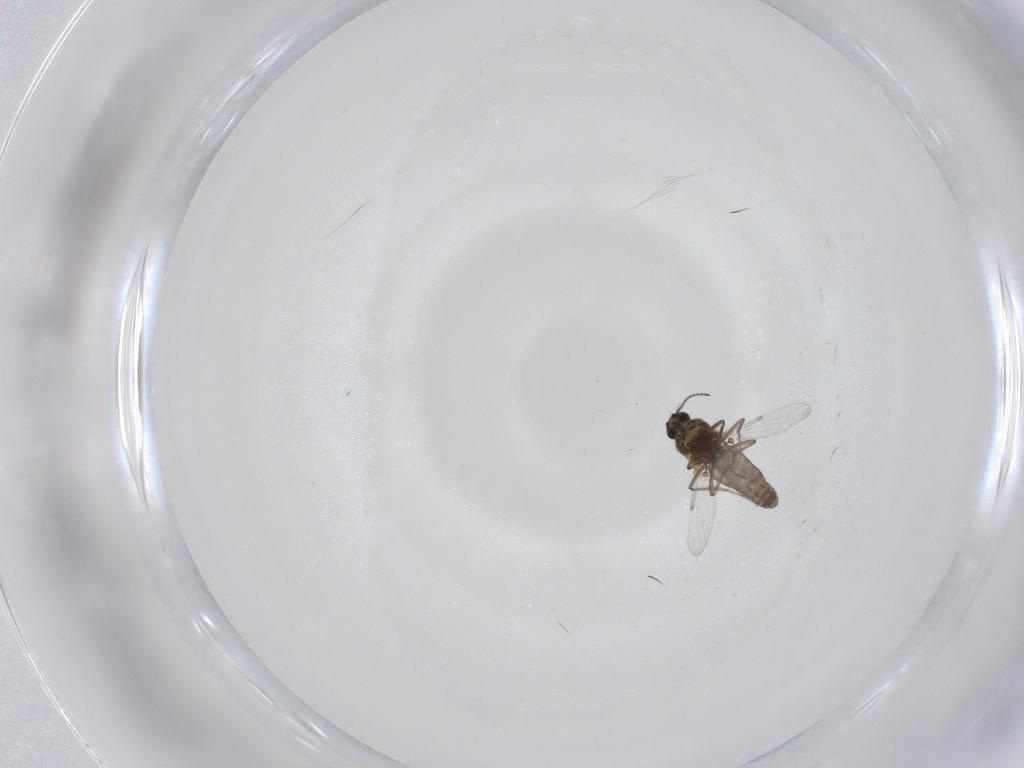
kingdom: Animalia
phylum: Arthropoda
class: Insecta
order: Diptera
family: Ceratopogonidae
